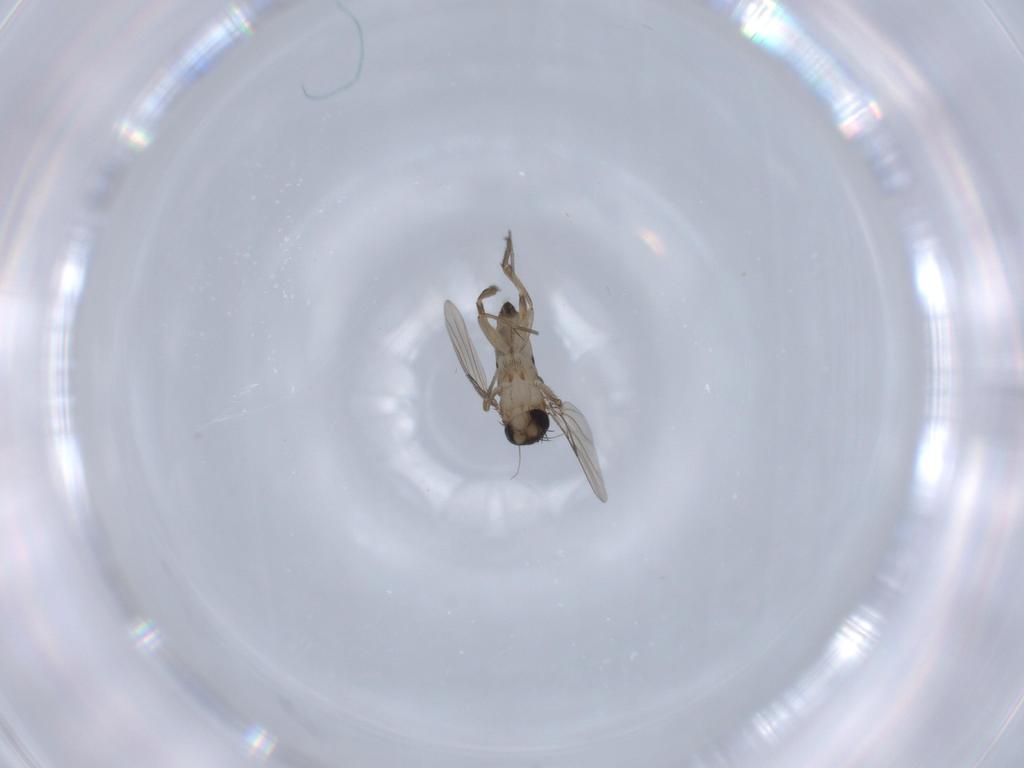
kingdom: Animalia
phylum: Arthropoda
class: Insecta
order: Diptera
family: Phoridae
